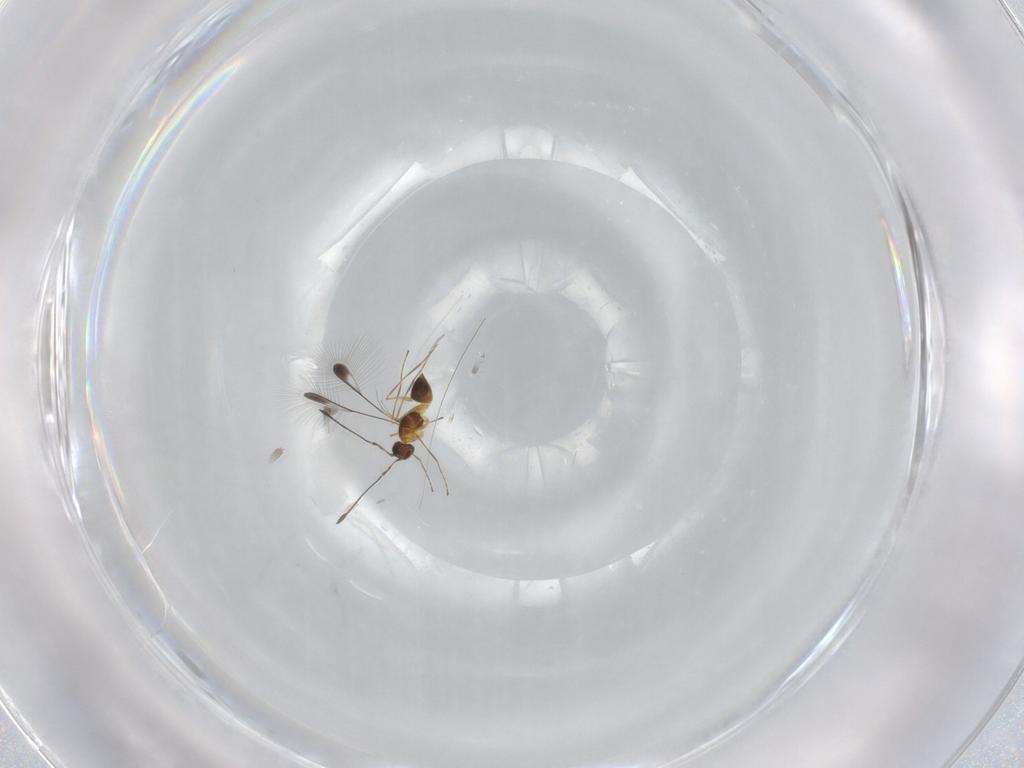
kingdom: Animalia
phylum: Arthropoda
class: Insecta
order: Hymenoptera
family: Mymaridae
